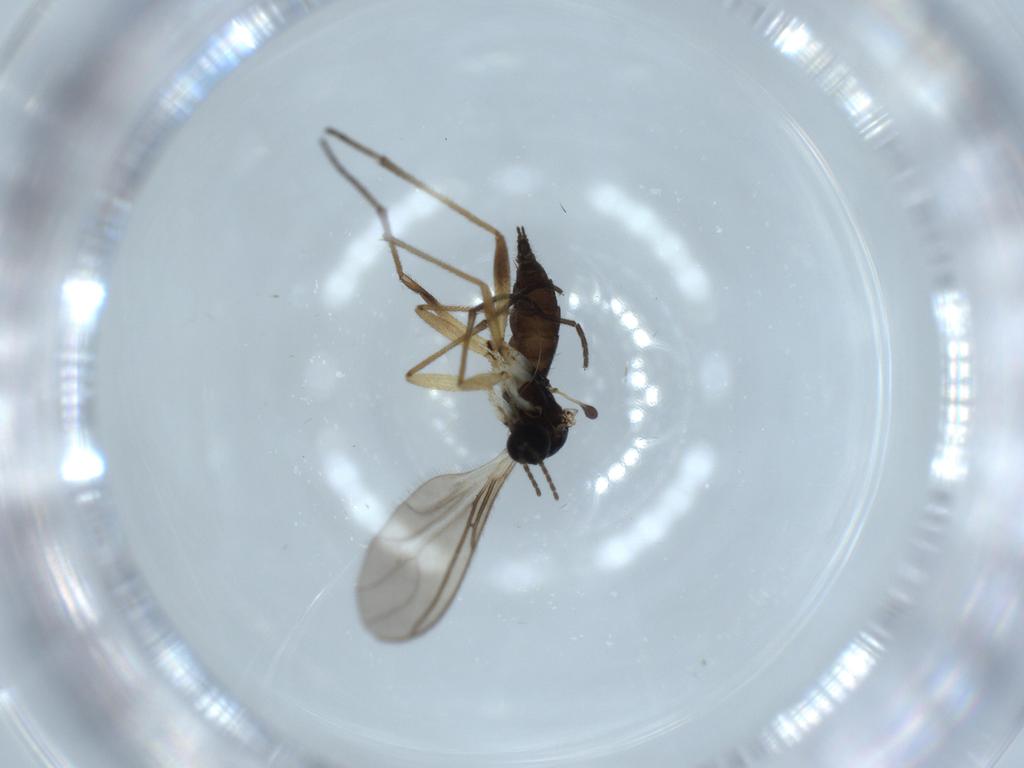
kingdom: Animalia
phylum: Arthropoda
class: Insecta
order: Diptera
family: Sciaridae
